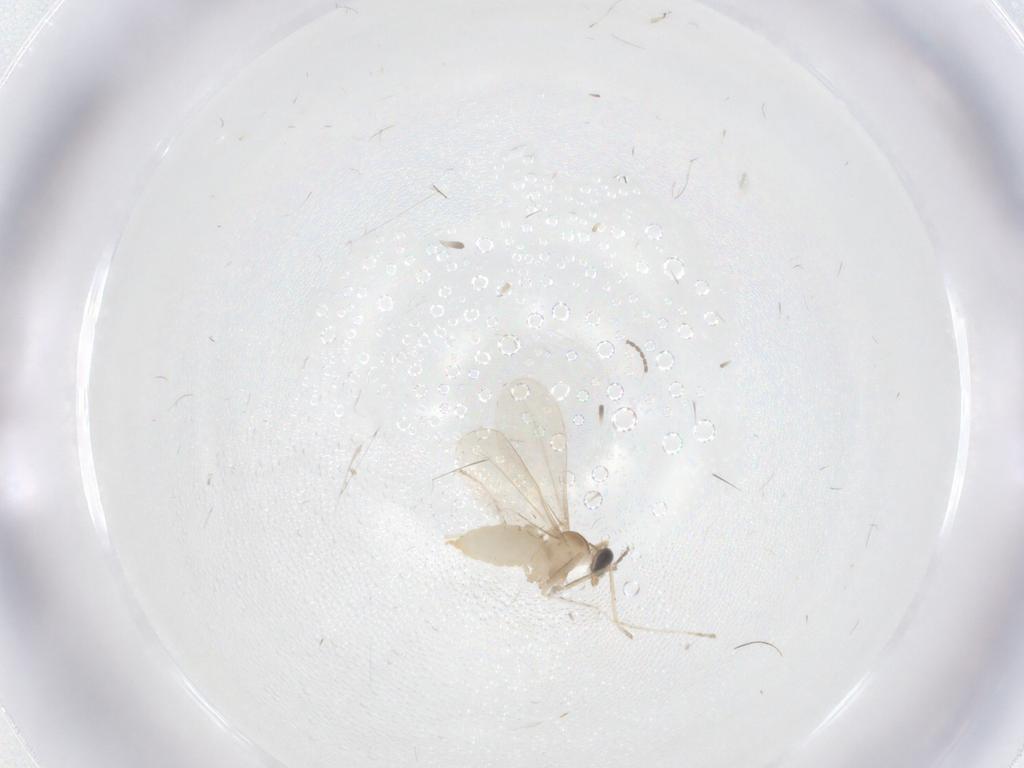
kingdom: Animalia
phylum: Arthropoda
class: Insecta
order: Diptera
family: Cecidomyiidae
